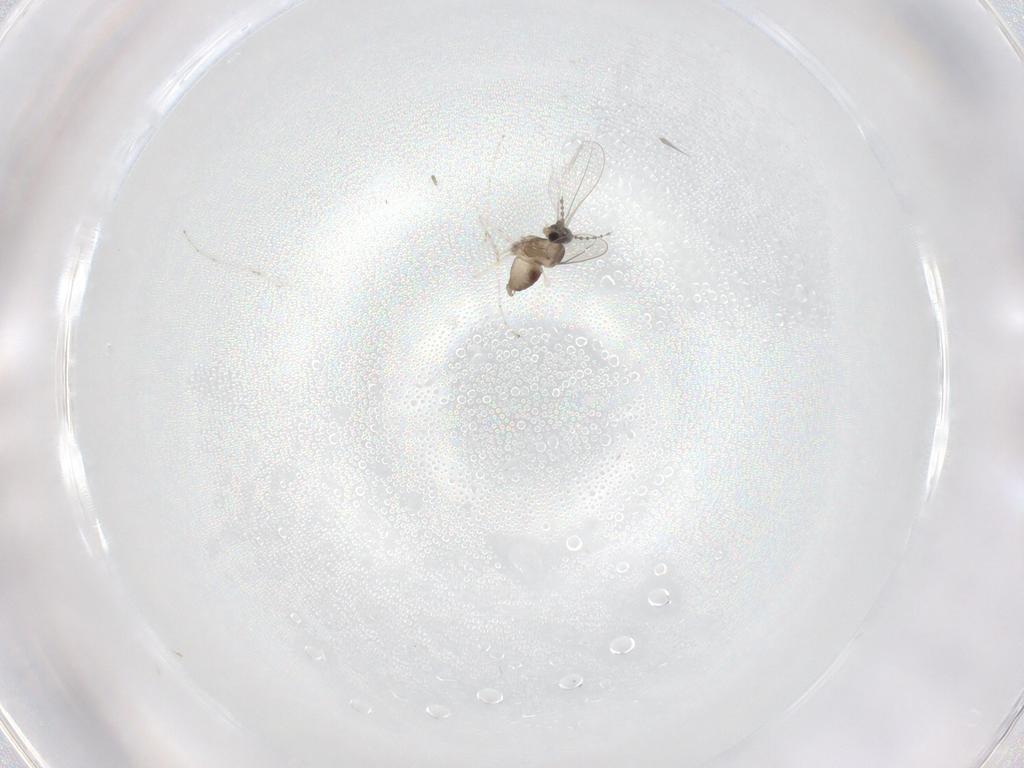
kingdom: Animalia
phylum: Arthropoda
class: Insecta
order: Diptera
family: Cecidomyiidae
